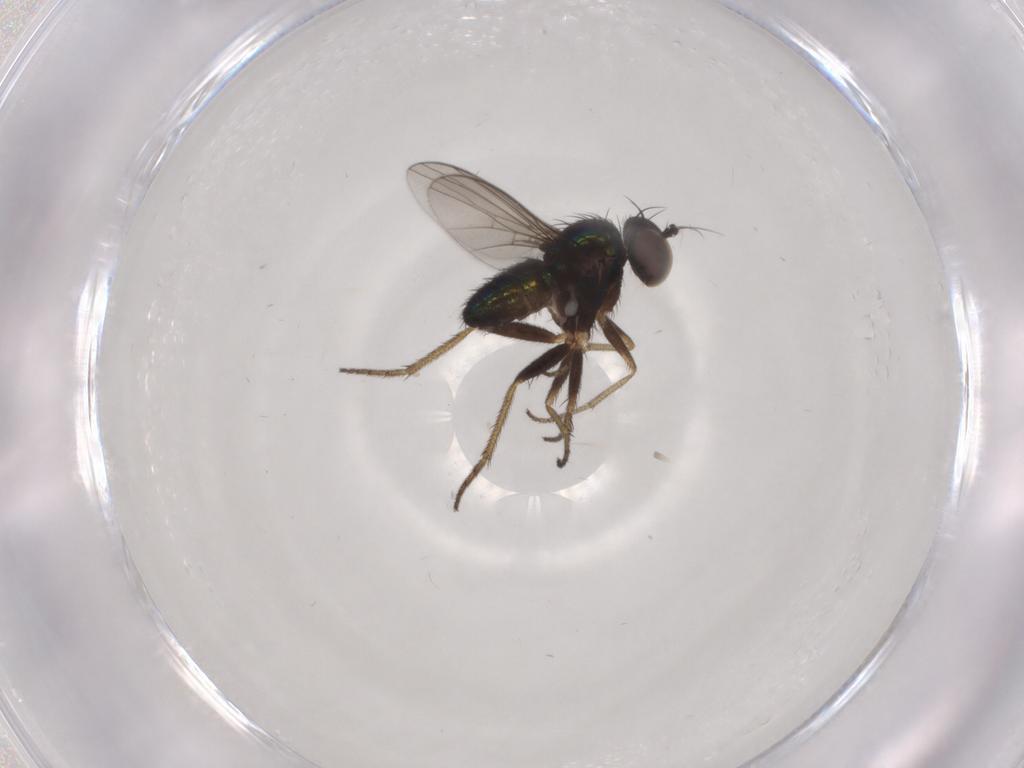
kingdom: Animalia
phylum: Arthropoda
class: Insecta
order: Diptera
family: Dolichopodidae
